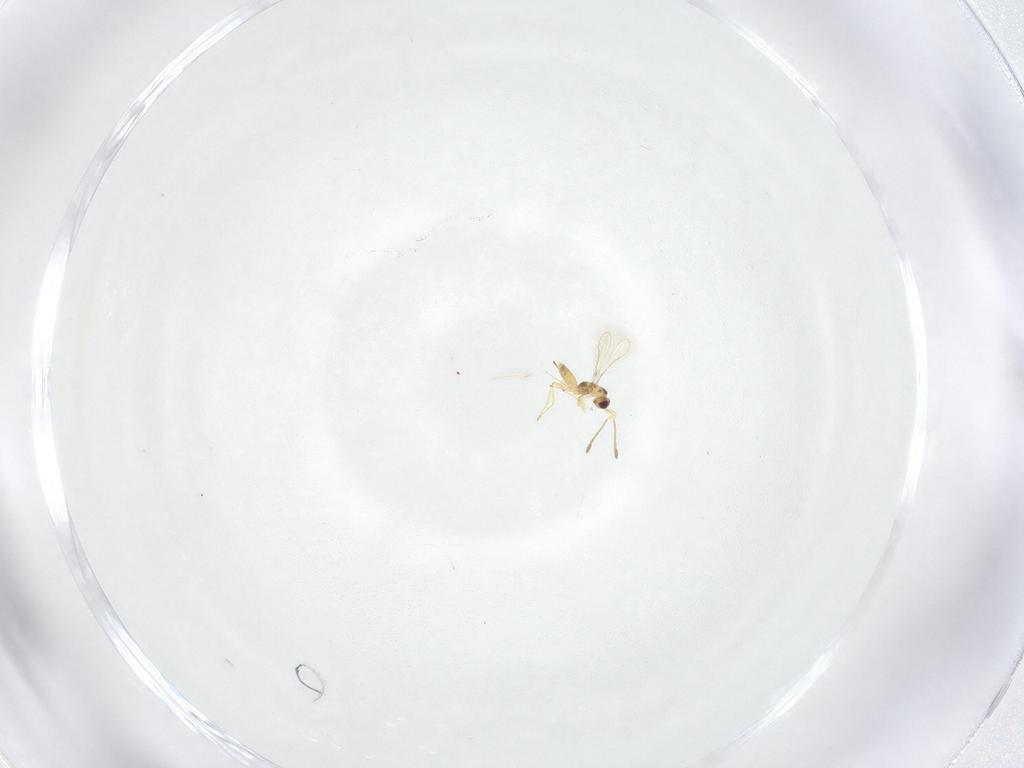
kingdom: Animalia
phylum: Arthropoda
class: Insecta
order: Hymenoptera
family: Mymaridae
